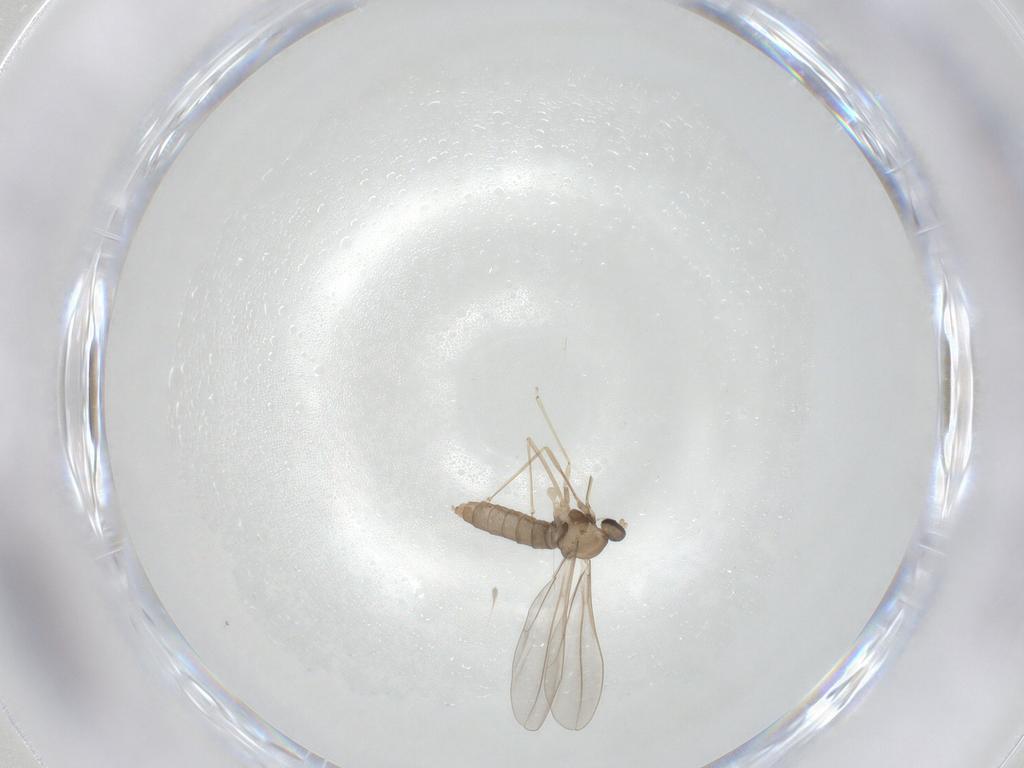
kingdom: Animalia
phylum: Arthropoda
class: Insecta
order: Diptera
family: Cecidomyiidae
